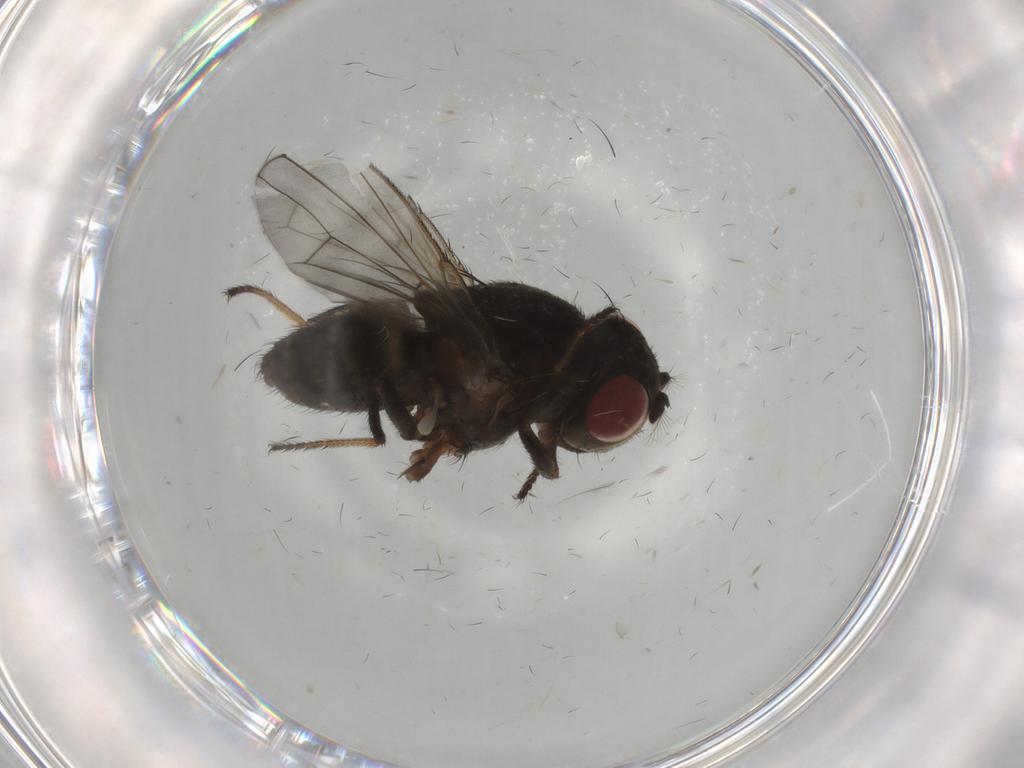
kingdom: Animalia
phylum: Arthropoda
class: Insecta
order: Diptera
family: Ephydridae
